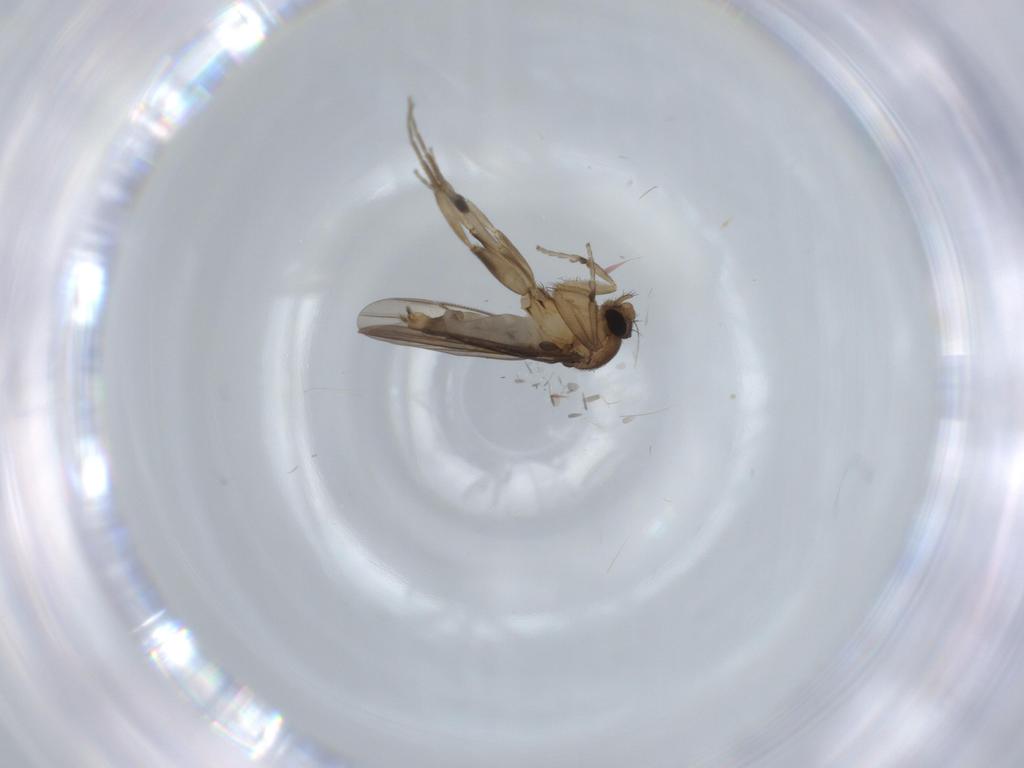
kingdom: Animalia
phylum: Arthropoda
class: Insecta
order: Diptera
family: Phoridae
